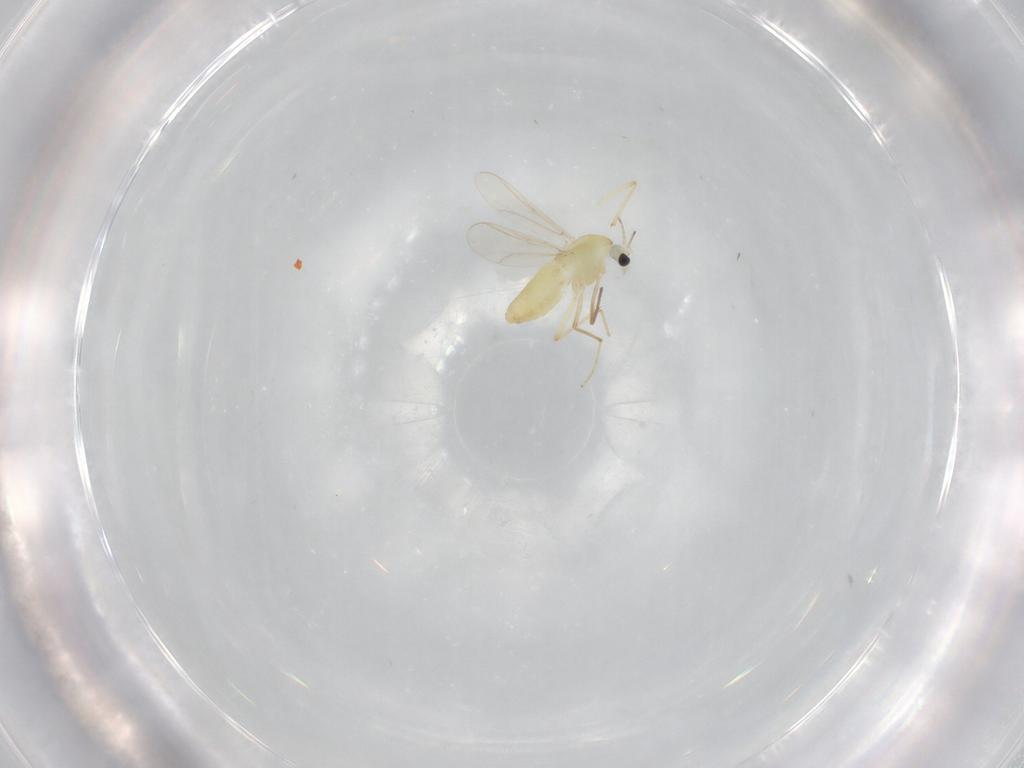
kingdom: Animalia
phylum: Arthropoda
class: Insecta
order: Diptera
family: Chironomidae
